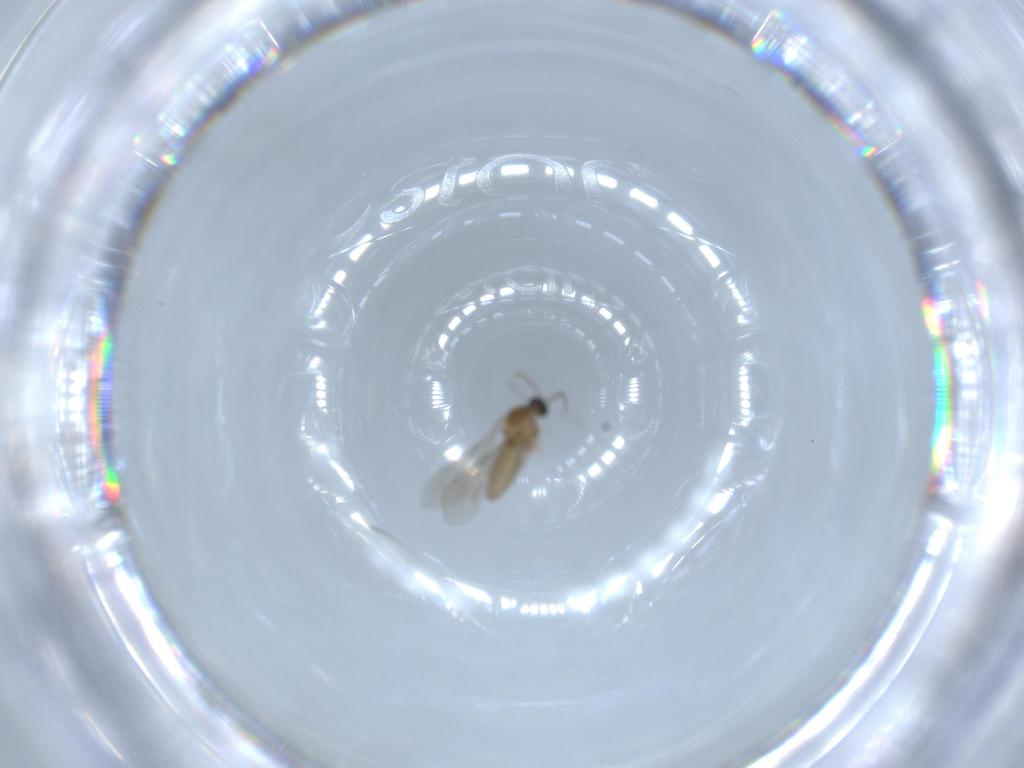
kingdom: Animalia
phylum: Arthropoda
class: Insecta
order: Diptera
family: Cecidomyiidae
